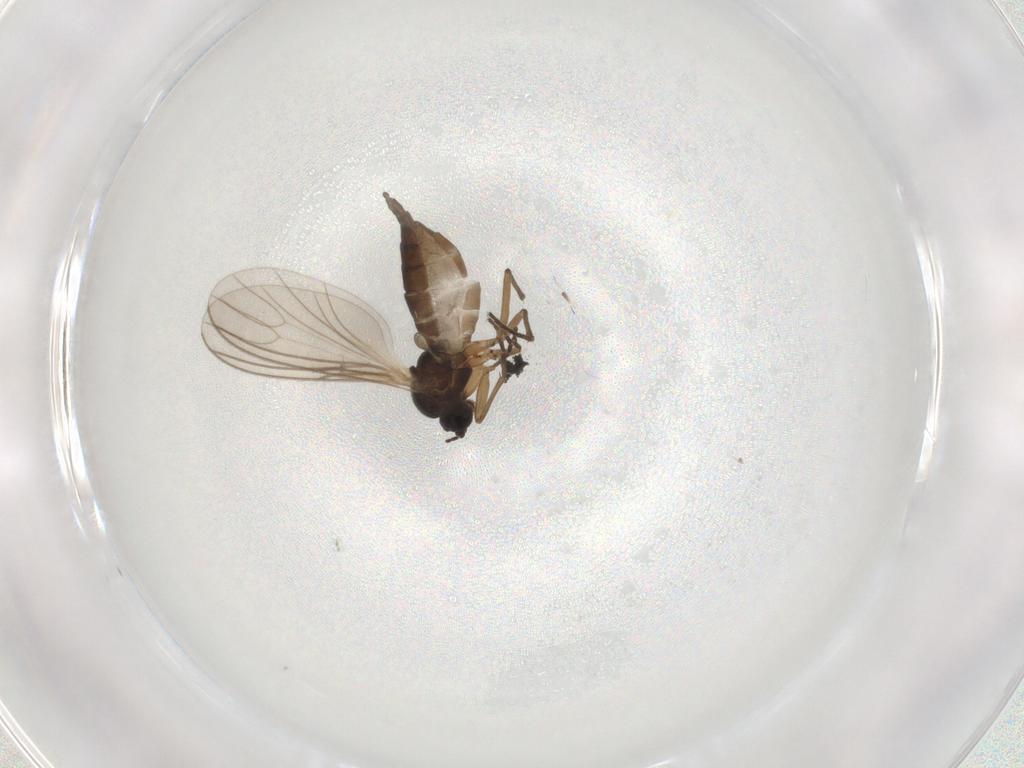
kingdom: Animalia
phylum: Arthropoda
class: Insecta
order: Diptera
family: Sciaridae
